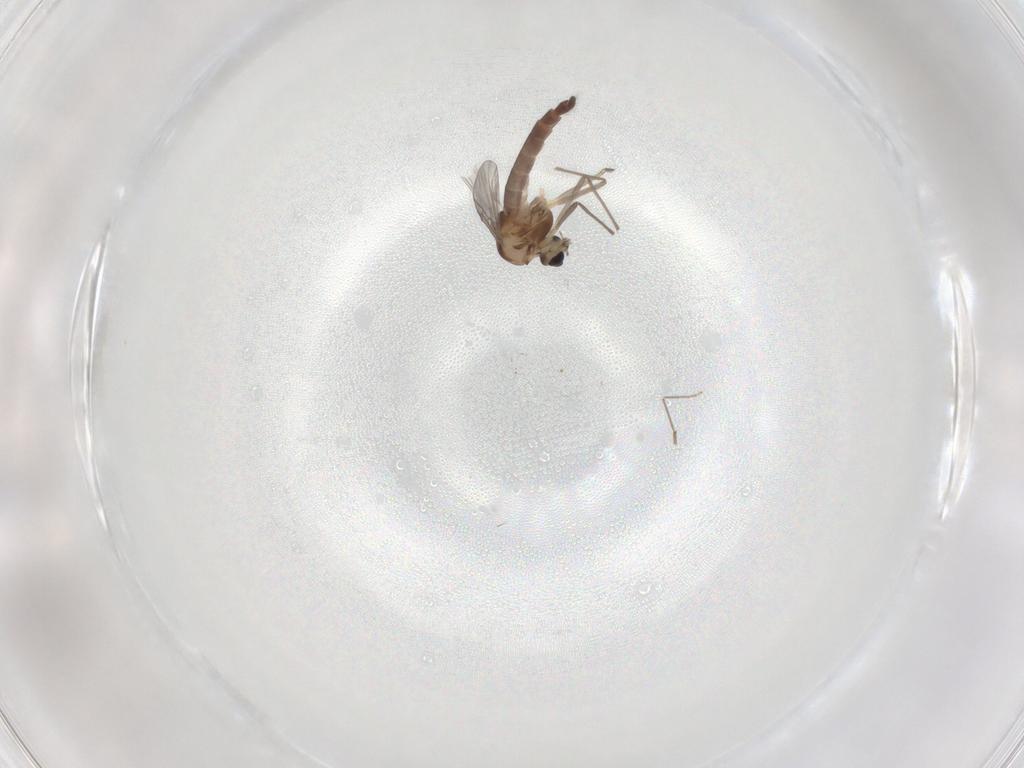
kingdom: Animalia
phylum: Arthropoda
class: Insecta
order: Diptera
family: Chironomidae
